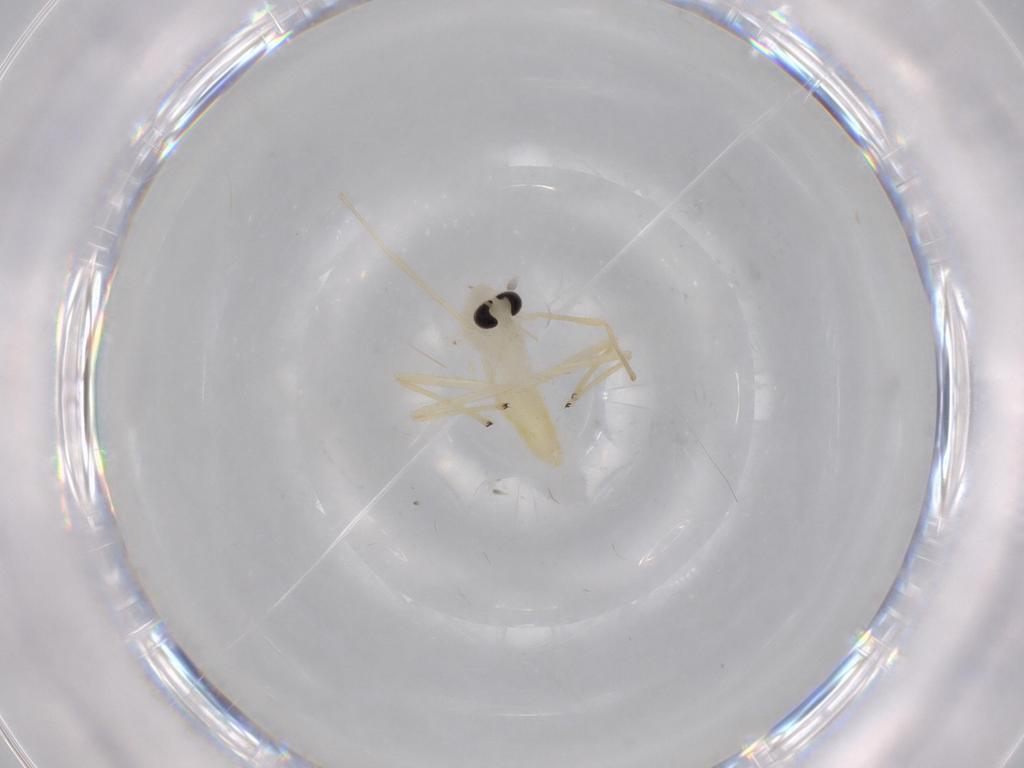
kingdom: Animalia
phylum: Arthropoda
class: Insecta
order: Diptera
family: Chironomidae
